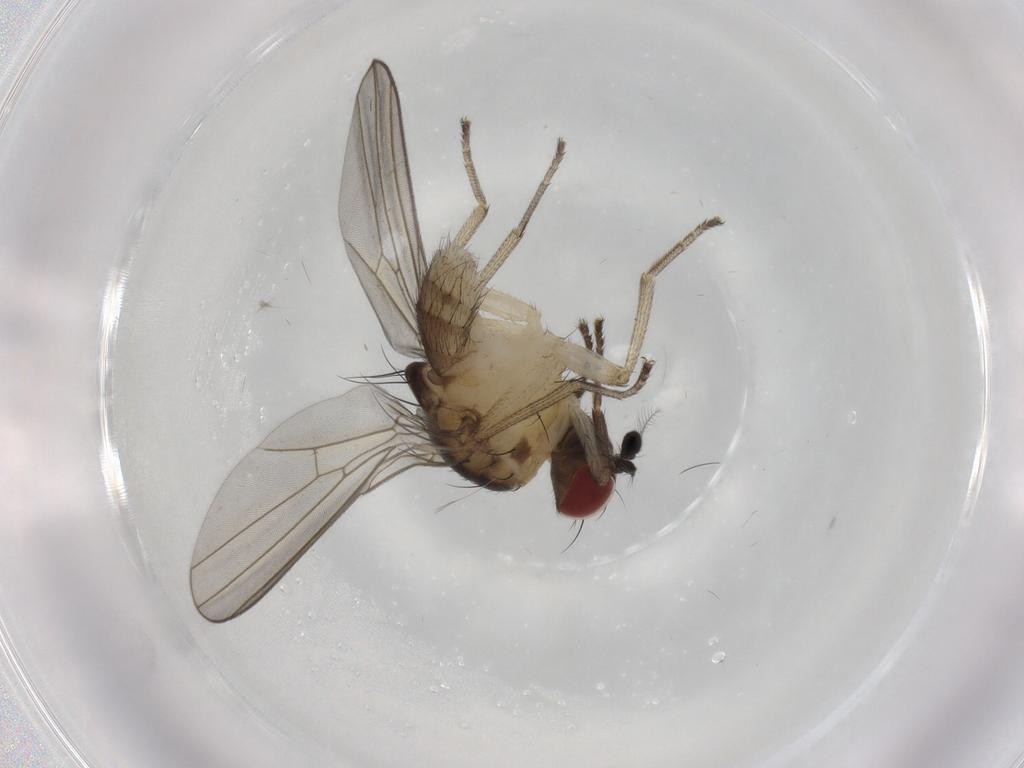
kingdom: Animalia
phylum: Arthropoda
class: Insecta
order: Diptera
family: Lauxaniidae
